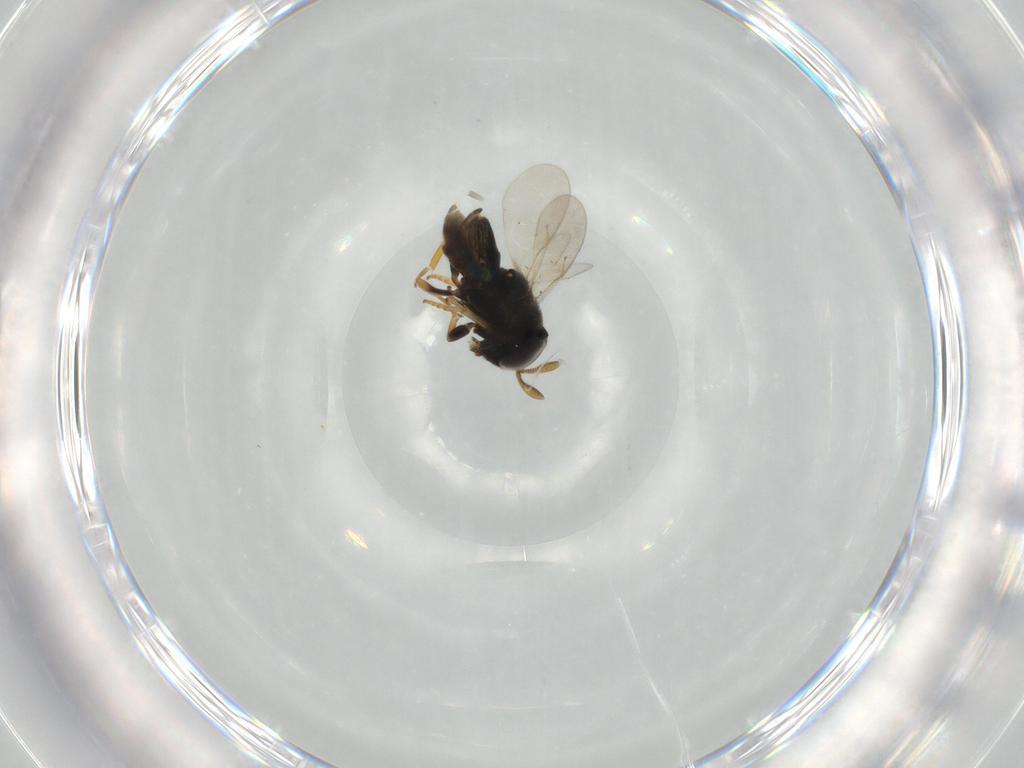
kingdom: Animalia
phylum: Arthropoda
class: Insecta
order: Hymenoptera
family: Encyrtidae
